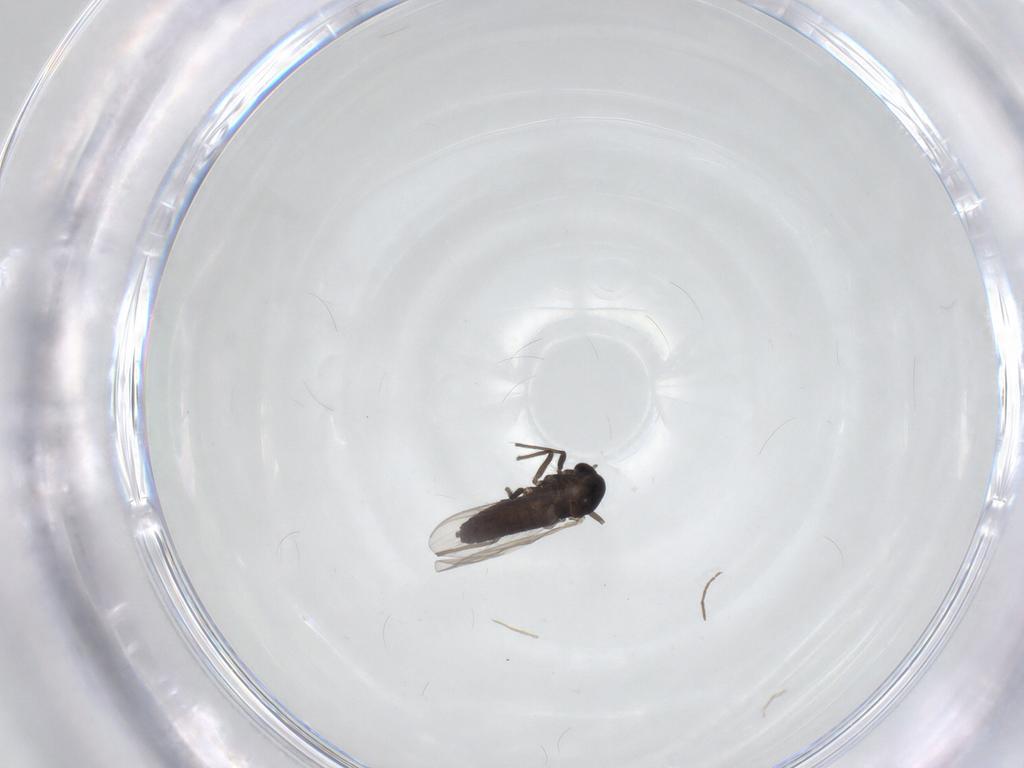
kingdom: Animalia
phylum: Arthropoda
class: Insecta
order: Diptera
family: Chironomidae
